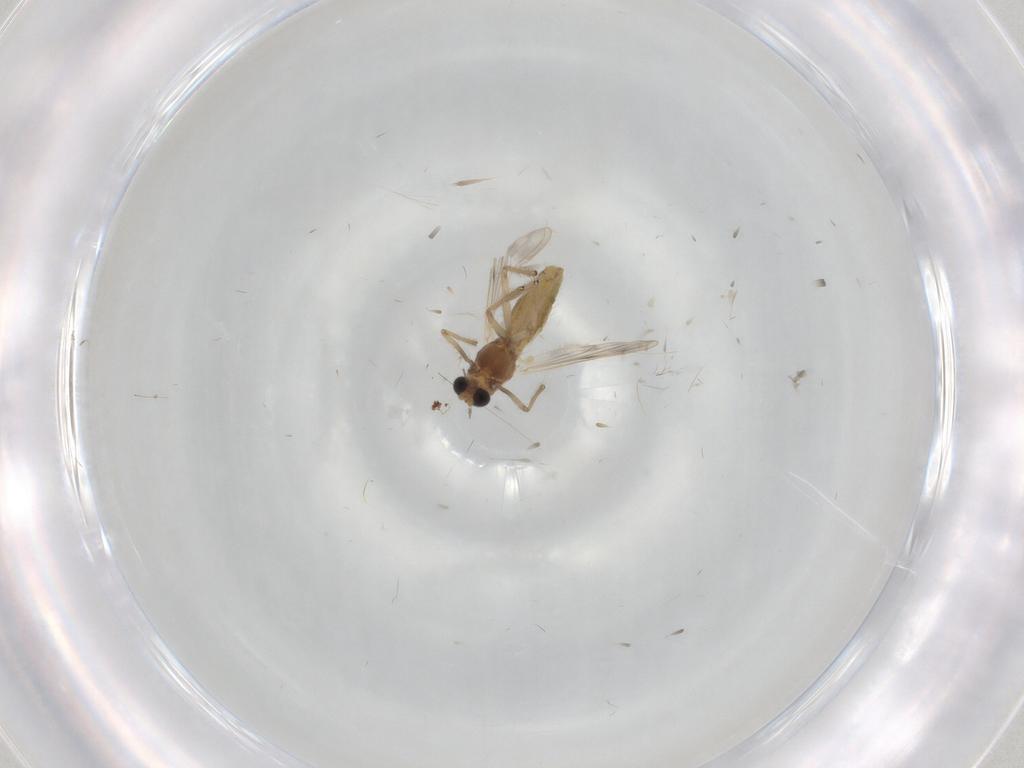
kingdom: Animalia
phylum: Arthropoda
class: Insecta
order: Diptera
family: Chironomidae
